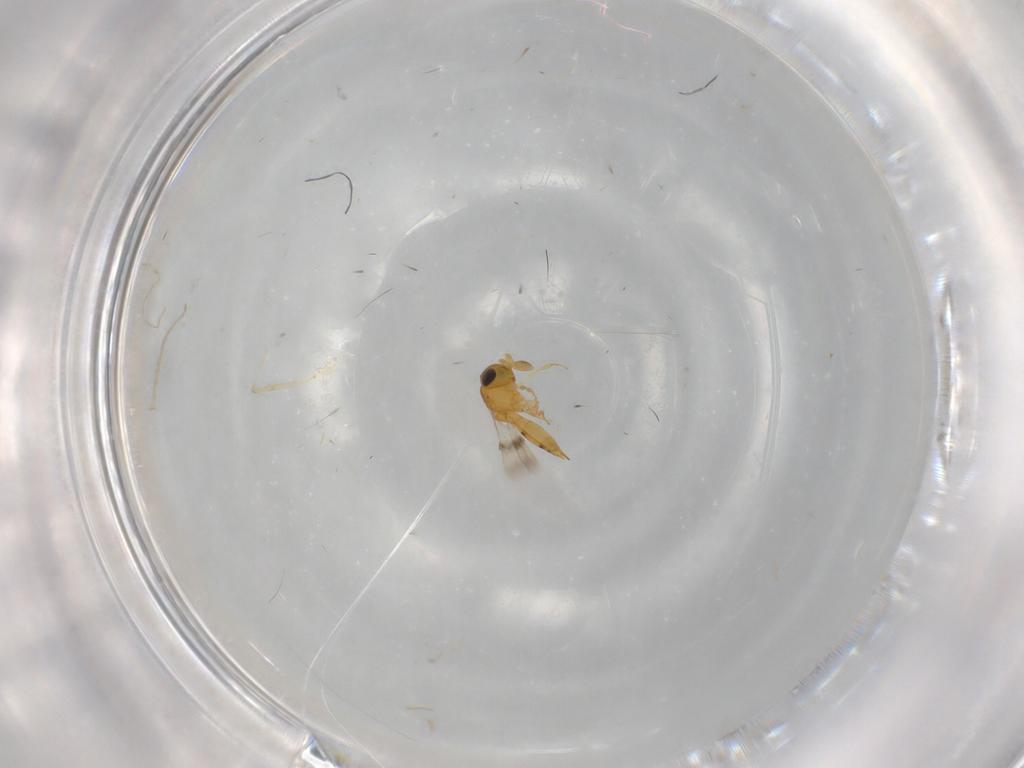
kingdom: Animalia
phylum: Arthropoda
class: Insecta
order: Hymenoptera
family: Scelionidae
